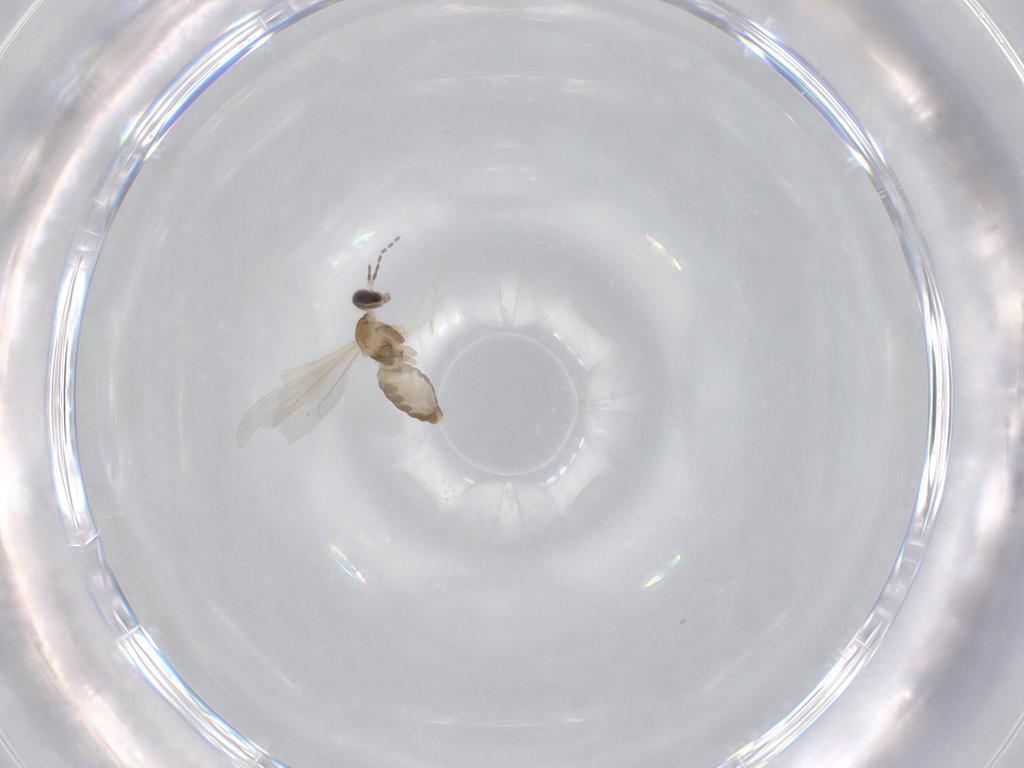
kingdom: Animalia
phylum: Arthropoda
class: Insecta
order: Diptera
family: Cecidomyiidae
